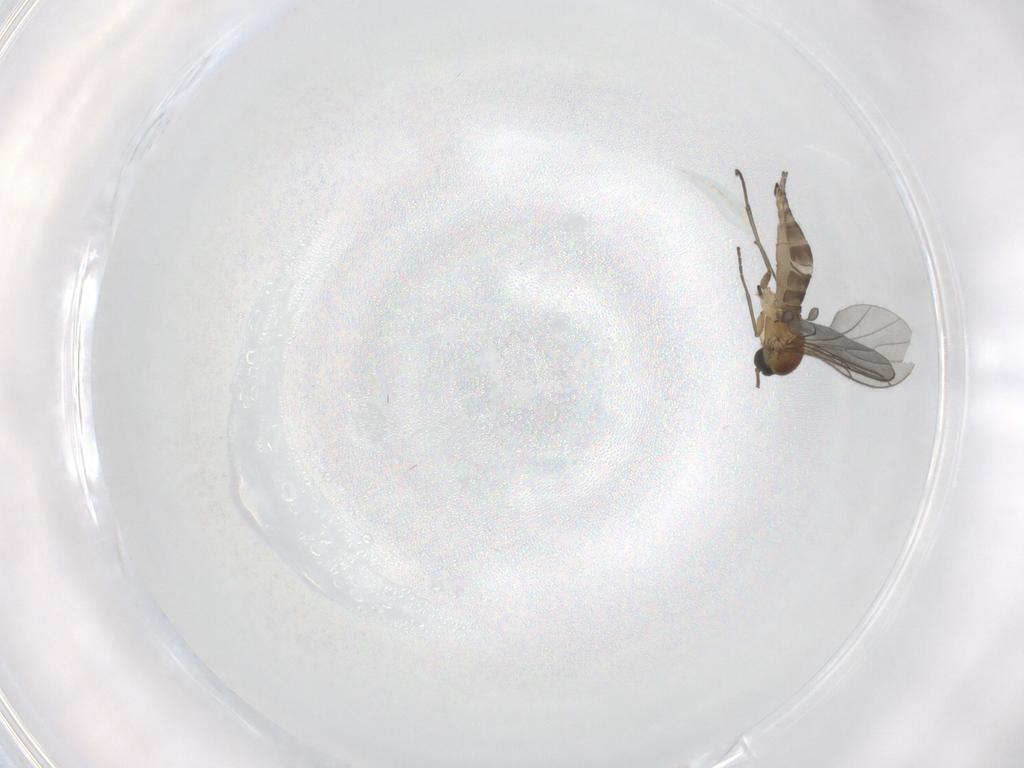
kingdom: Animalia
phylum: Arthropoda
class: Insecta
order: Diptera
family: Sciaridae
